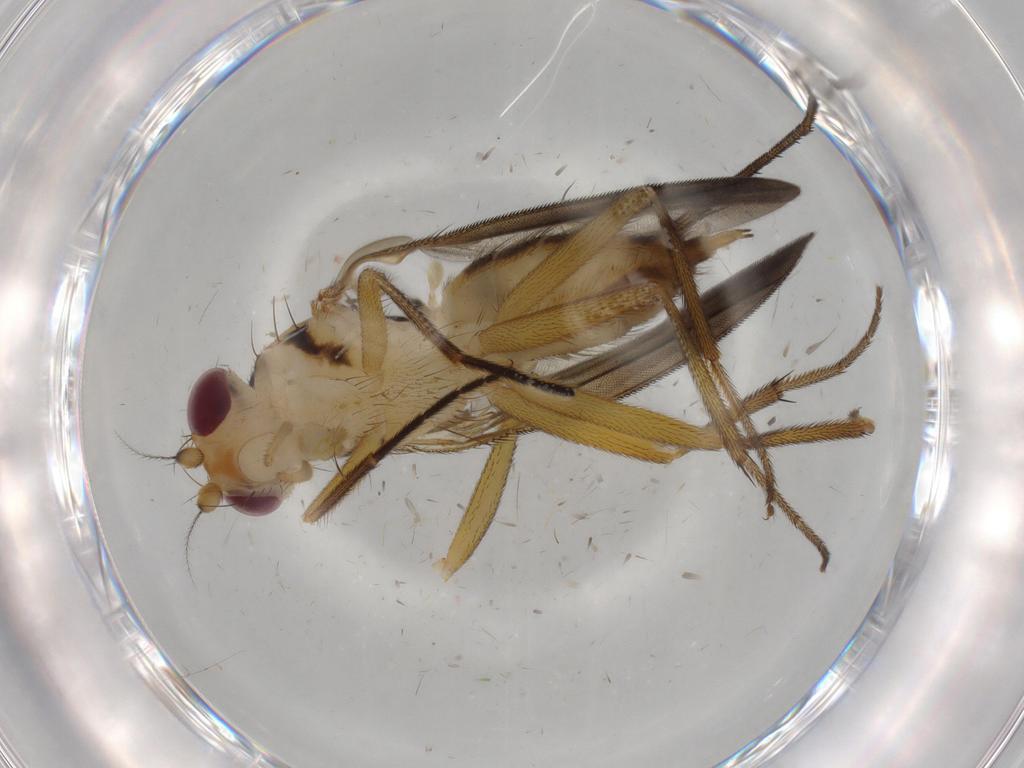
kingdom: Animalia
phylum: Arthropoda
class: Insecta
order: Diptera
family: Clusiidae
